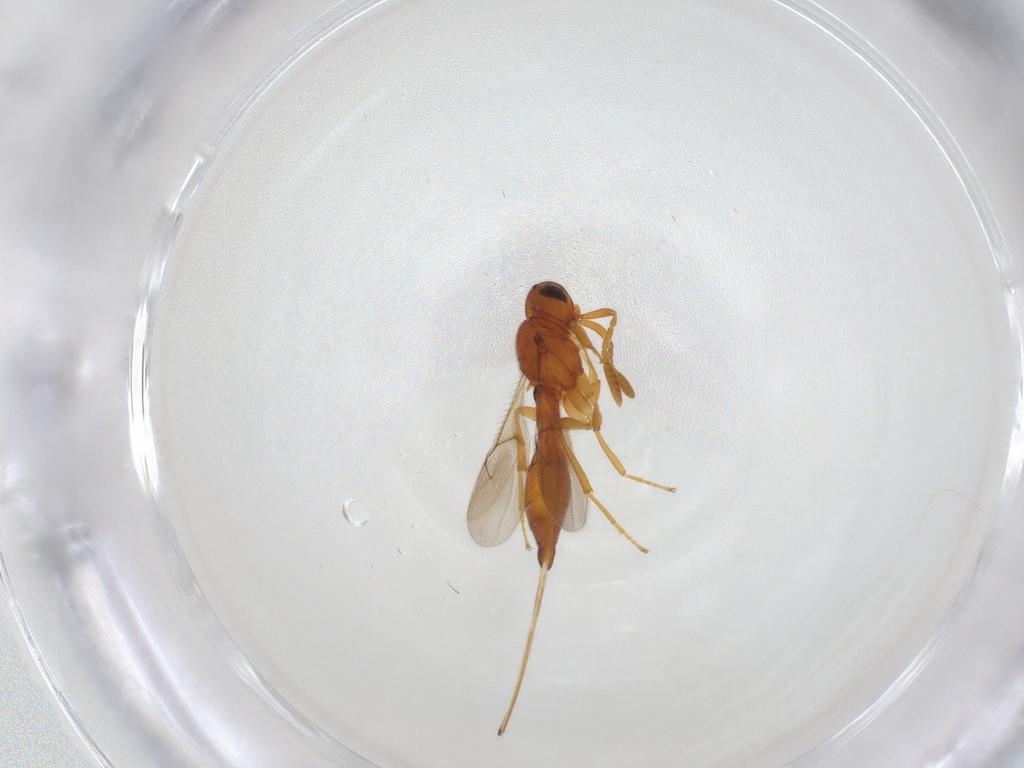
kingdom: Animalia
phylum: Arthropoda
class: Insecta
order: Hymenoptera
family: Scelionidae
